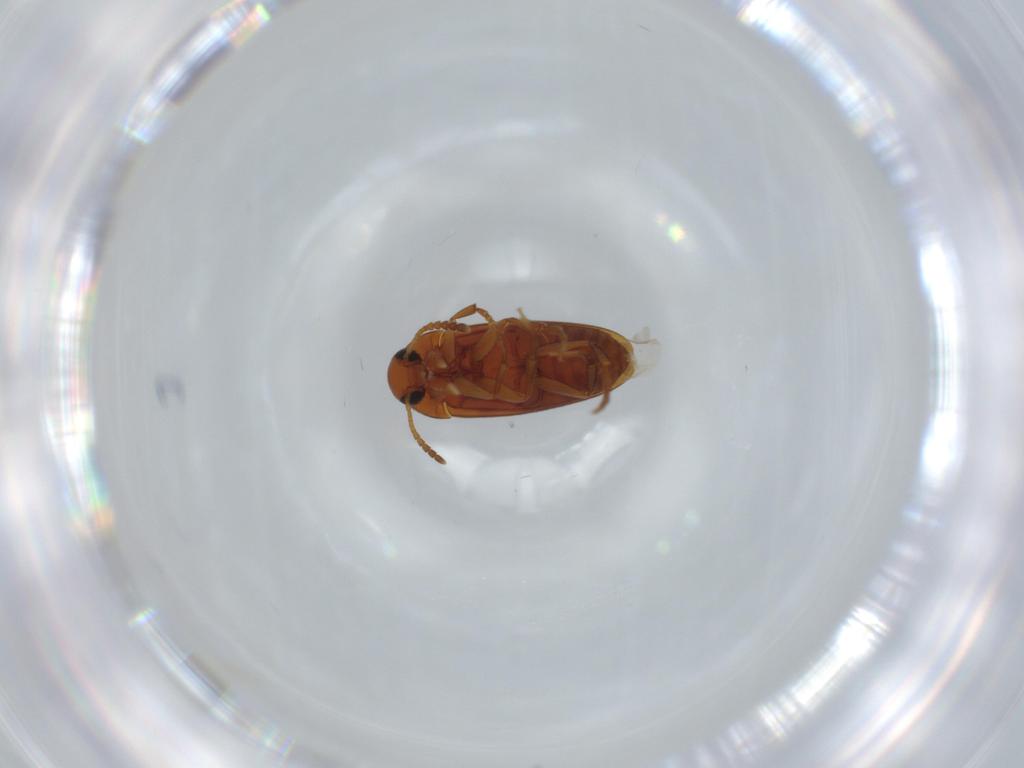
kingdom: Animalia
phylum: Arthropoda
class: Insecta
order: Coleoptera
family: Scraptiidae
